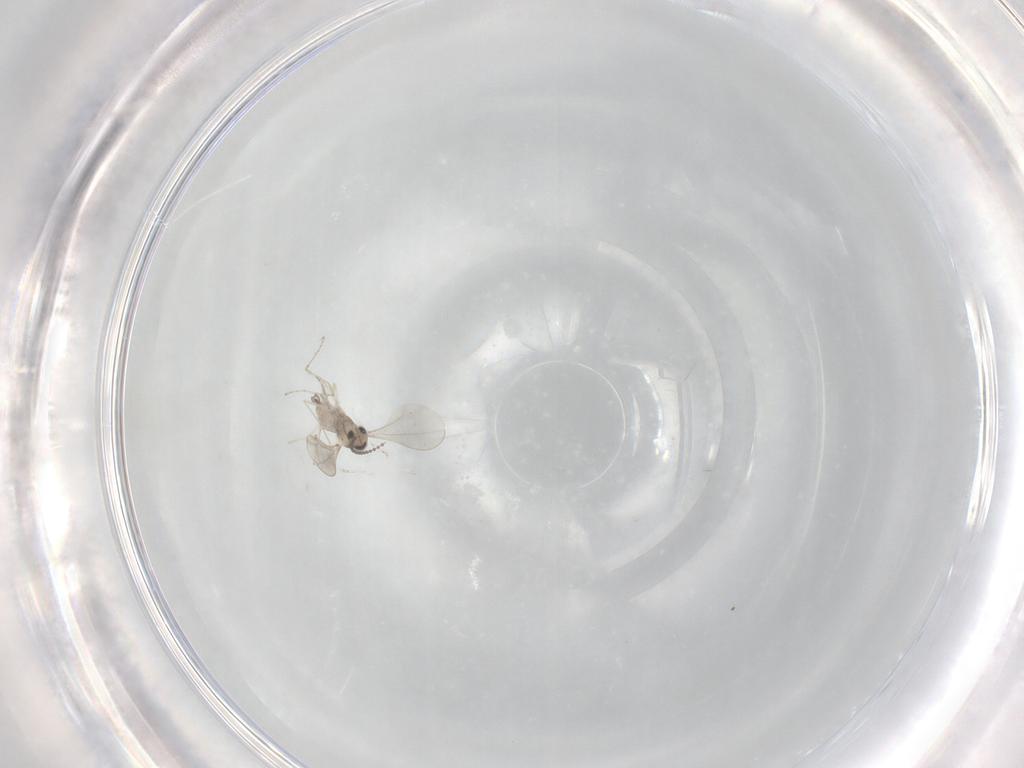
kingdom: Animalia
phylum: Arthropoda
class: Insecta
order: Diptera
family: Cecidomyiidae
